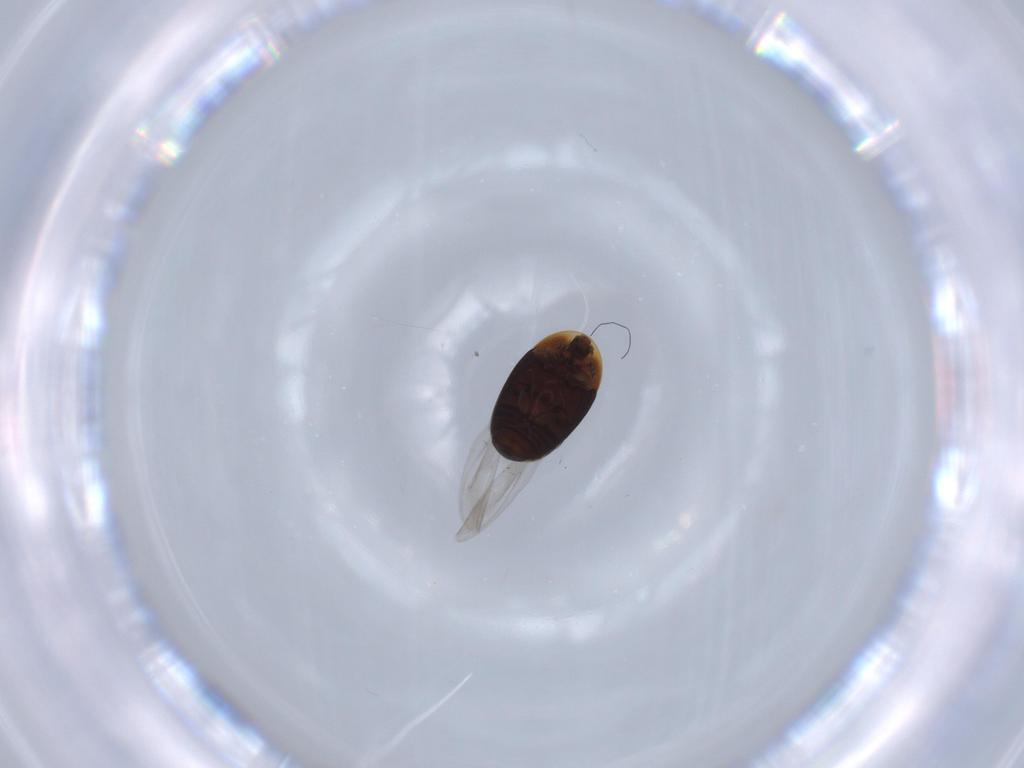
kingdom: Animalia
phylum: Arthropoda
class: Insecta
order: Coleoptera
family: Corylophidae
